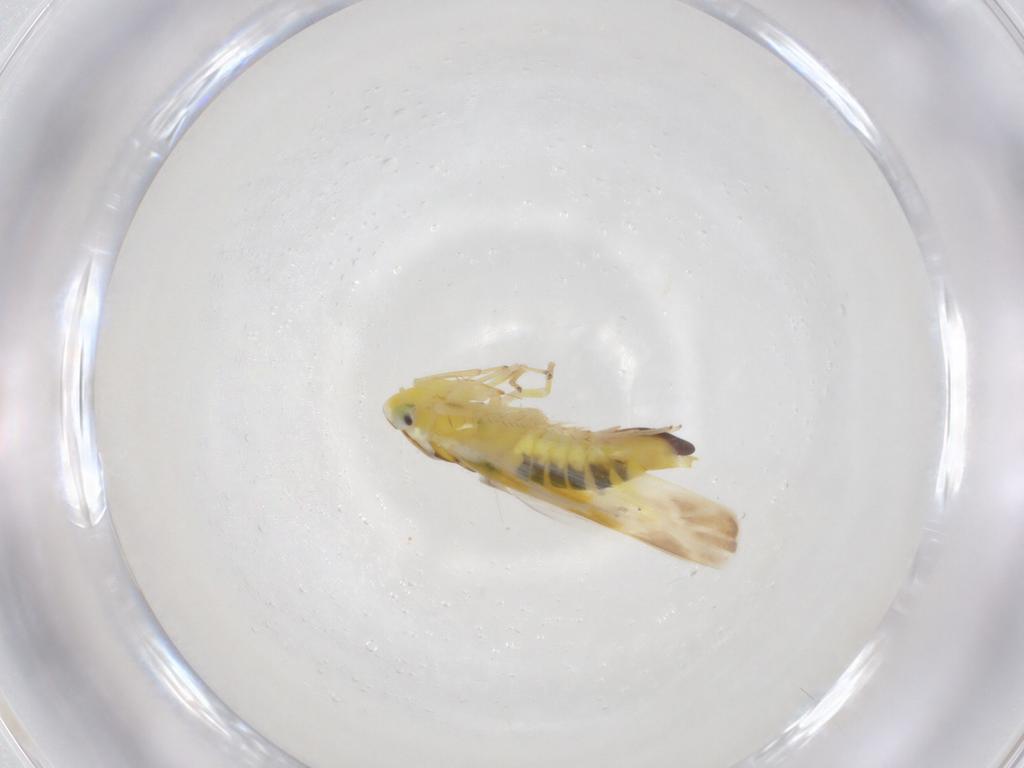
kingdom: Animalia
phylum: Arthropoda
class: Insecta
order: Hemiptera
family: Cicadellidae
